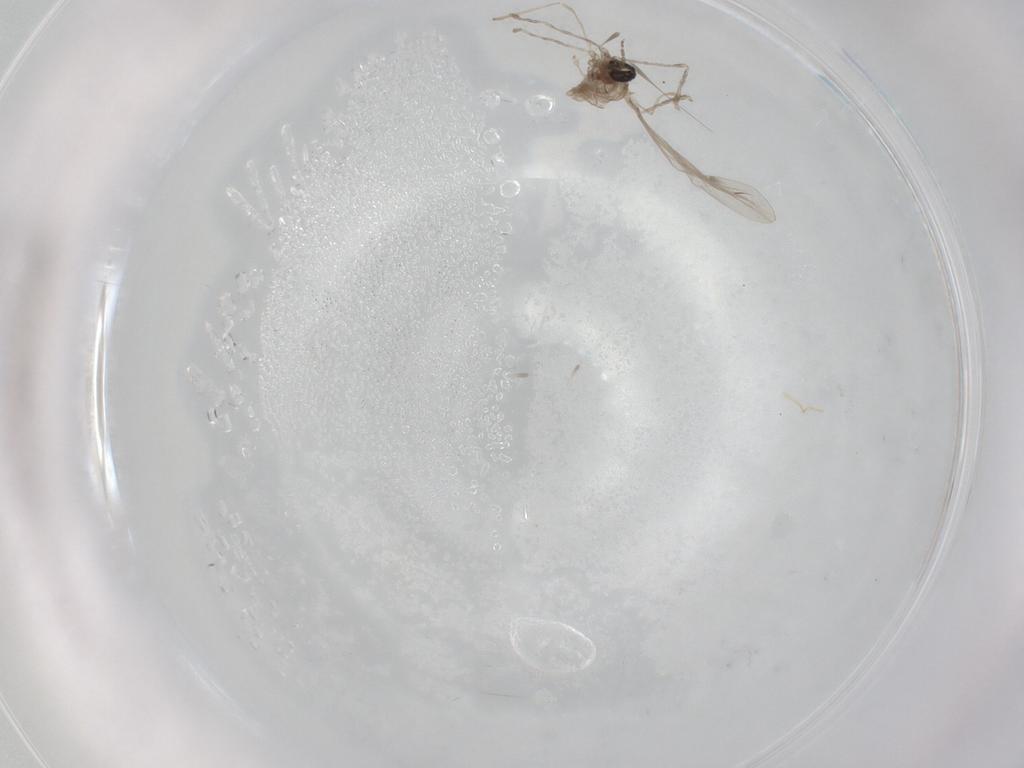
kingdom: Animalia
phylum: Arthropoda
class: Insecta
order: Diptera
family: Cecidomyiidae
